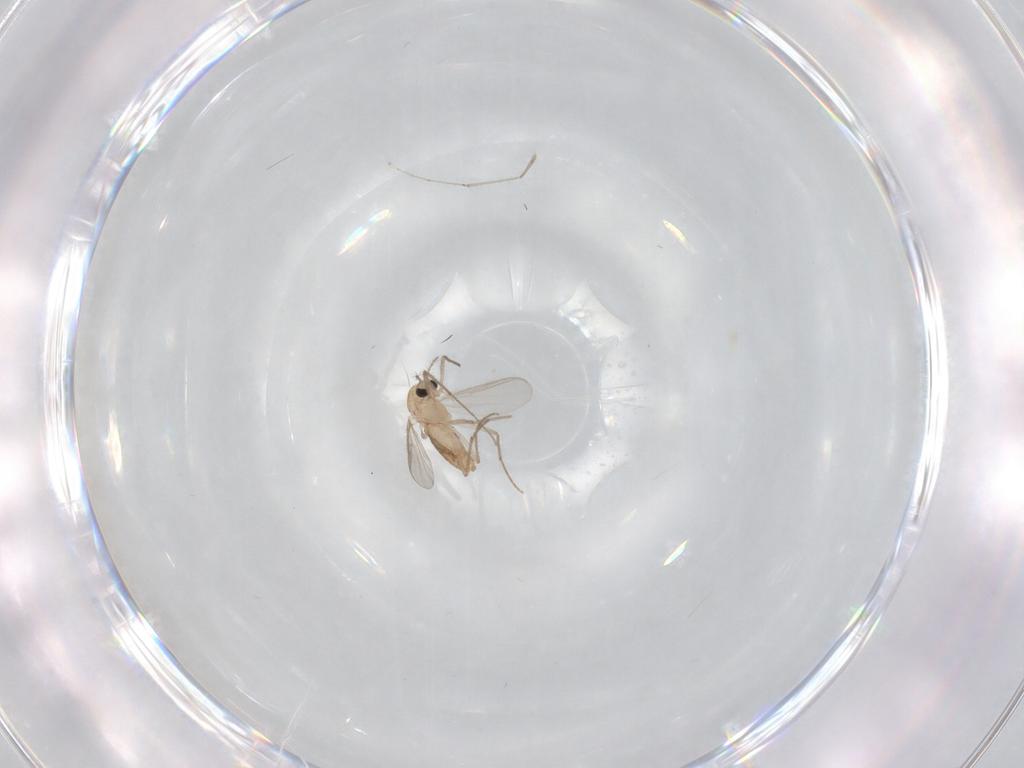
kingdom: Animalia
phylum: Arthropoda
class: Insecta
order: Diptera
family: Chironomidae
